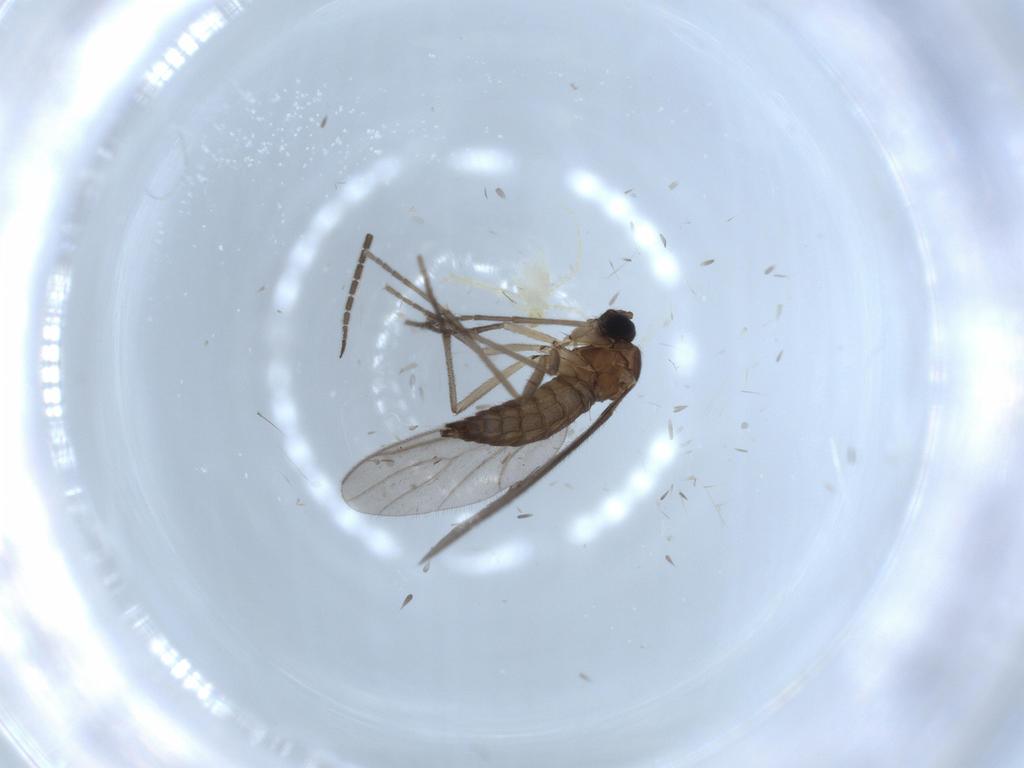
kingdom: Animalia
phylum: Arthropoda
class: Insecta
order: Diptera
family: Sciaridae
